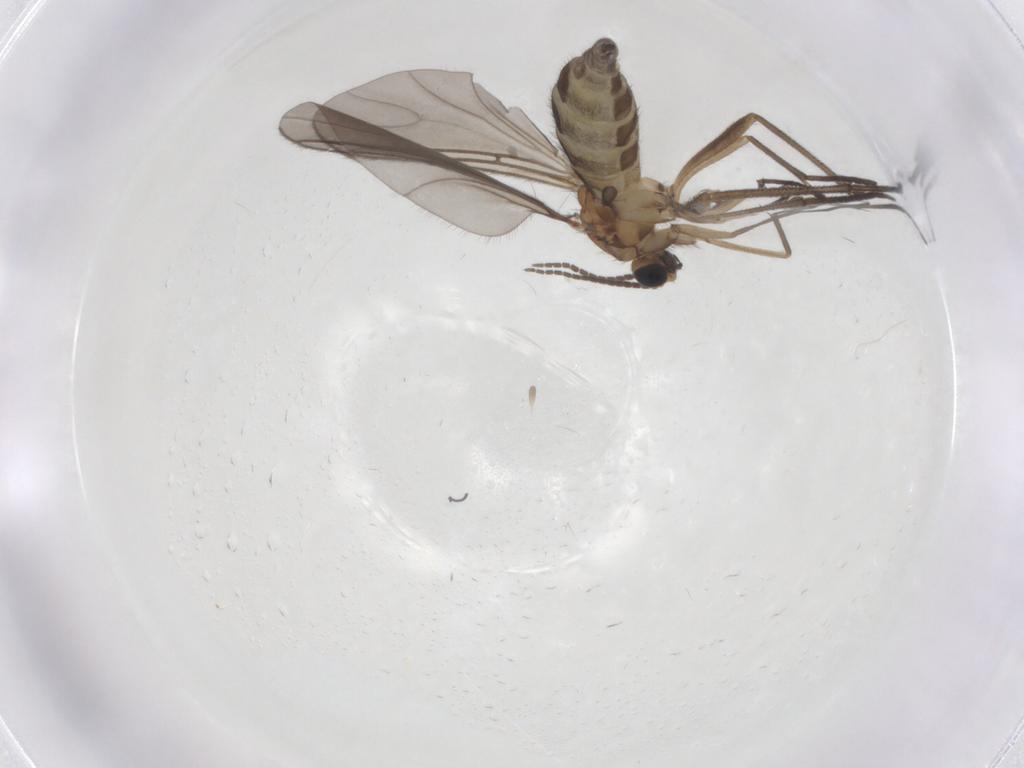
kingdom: Animalia
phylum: Arthropoda
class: Insecta
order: Diptera
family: Sciaridae
